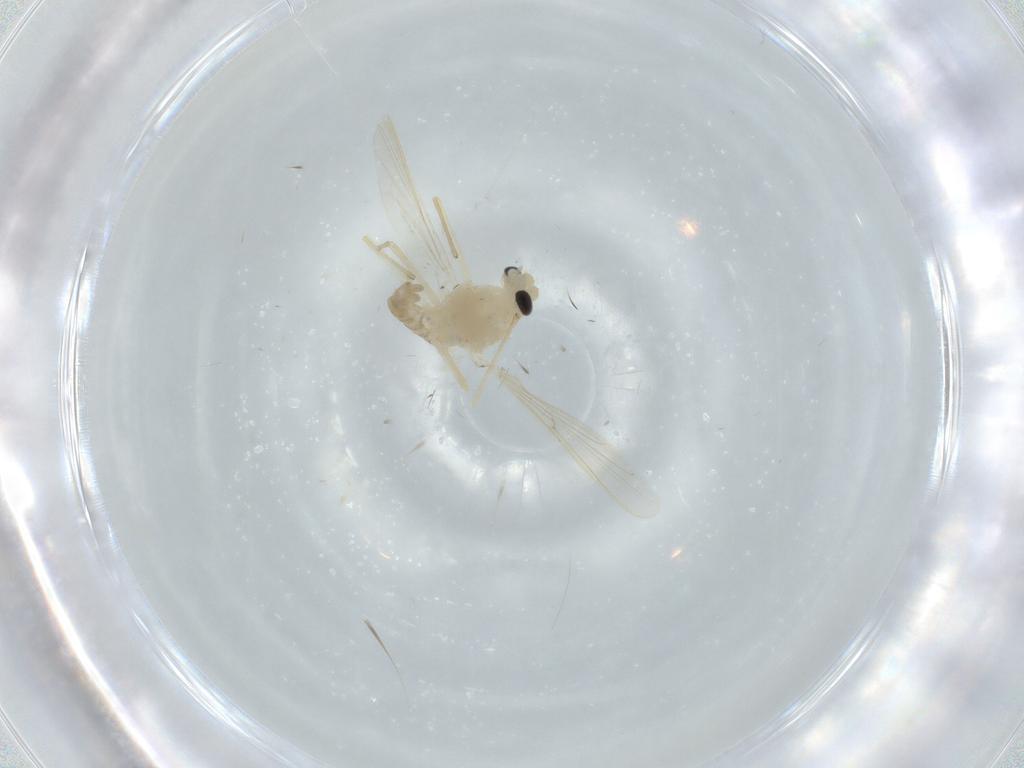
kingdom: Animalia
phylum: Arthropoda
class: Insecta
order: Diptera
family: Chironomidae
